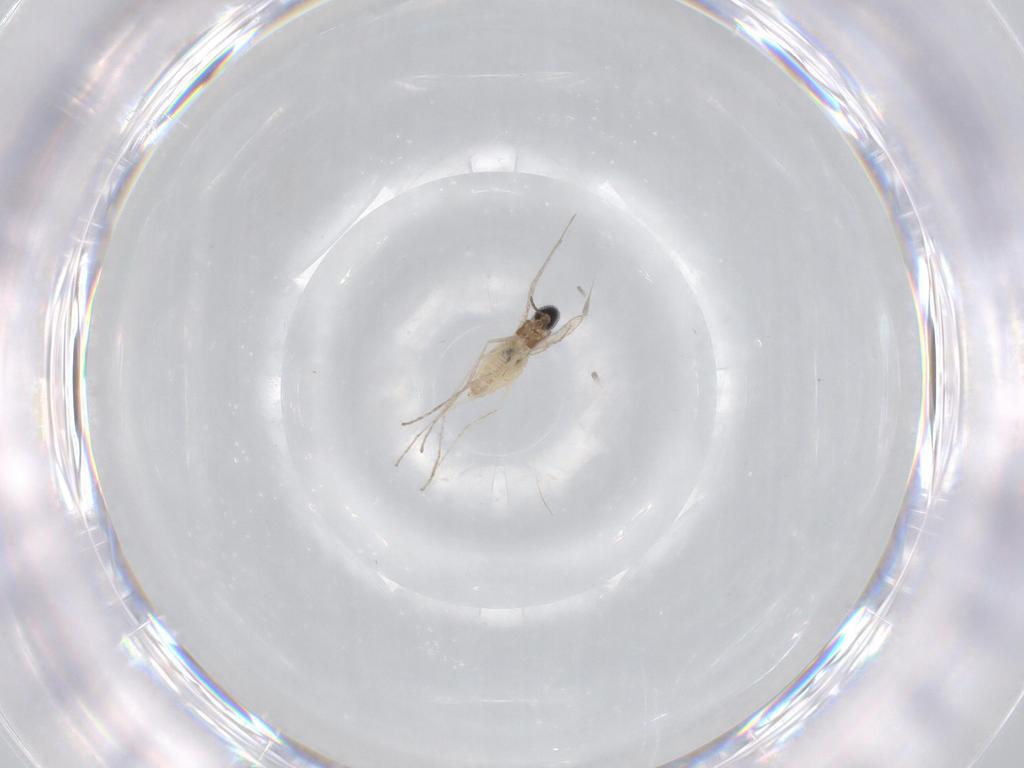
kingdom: Animalia
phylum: Arthropoda
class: Insecta
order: Diptera
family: Cecidomyiidae
